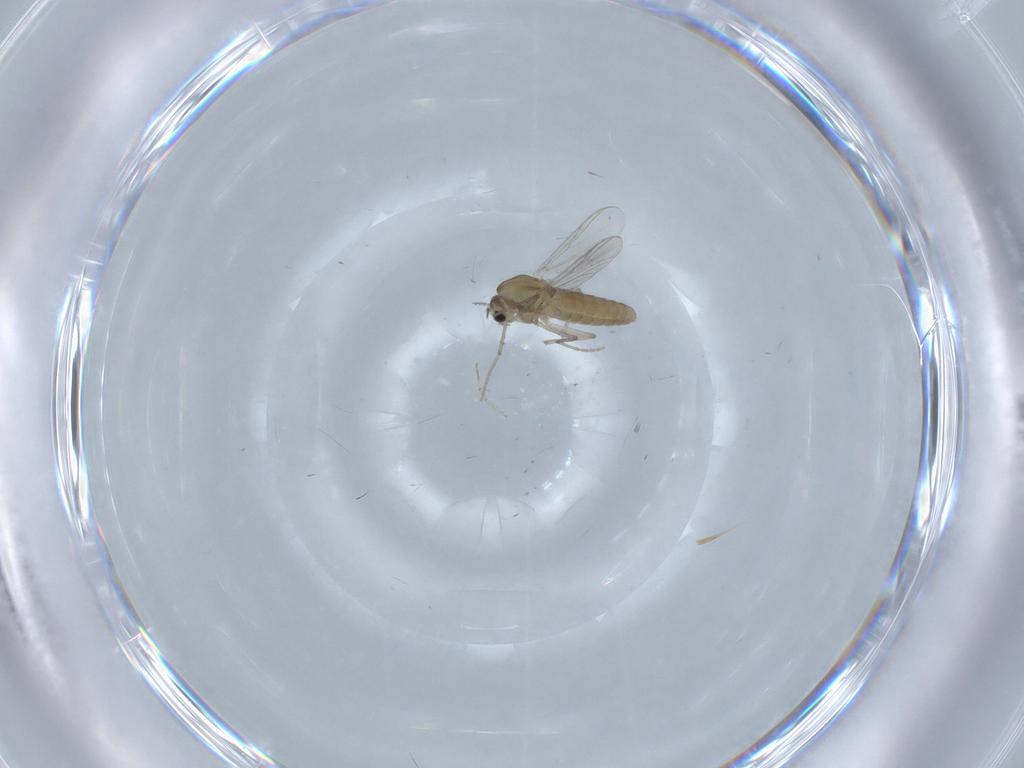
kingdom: Animalia
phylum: Arthropoda
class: Insecta
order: Diptera
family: Chironomidae
